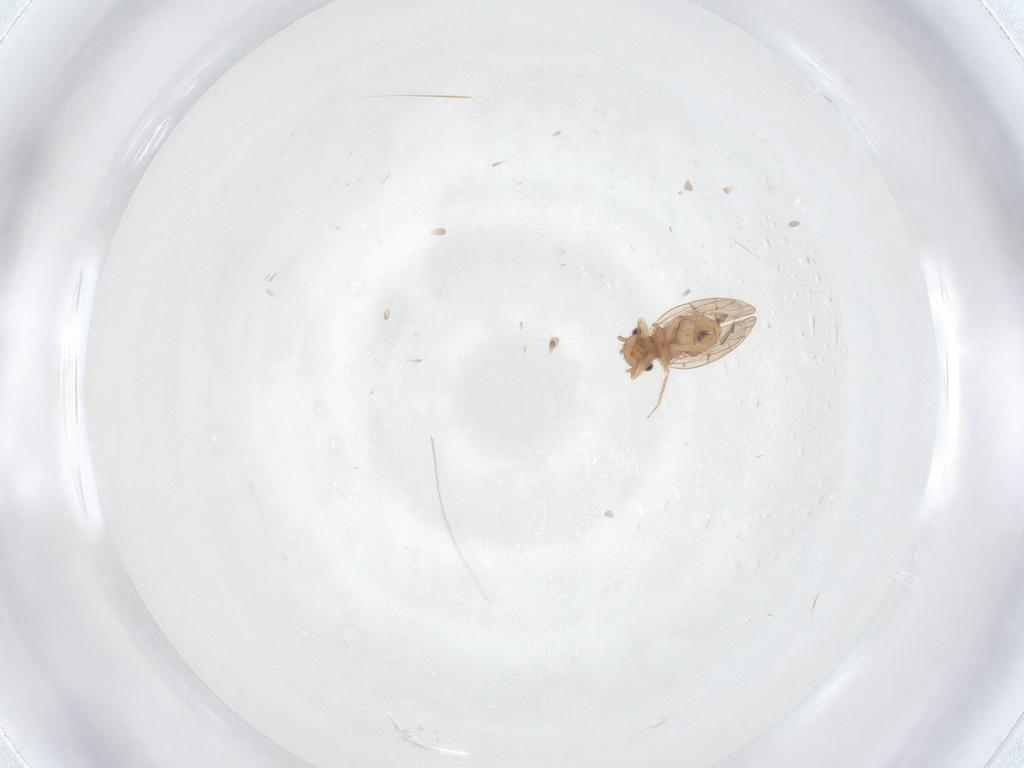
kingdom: Animalia
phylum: Arthropoda
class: Insecta
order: Psocodea
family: Ectopsocidae
